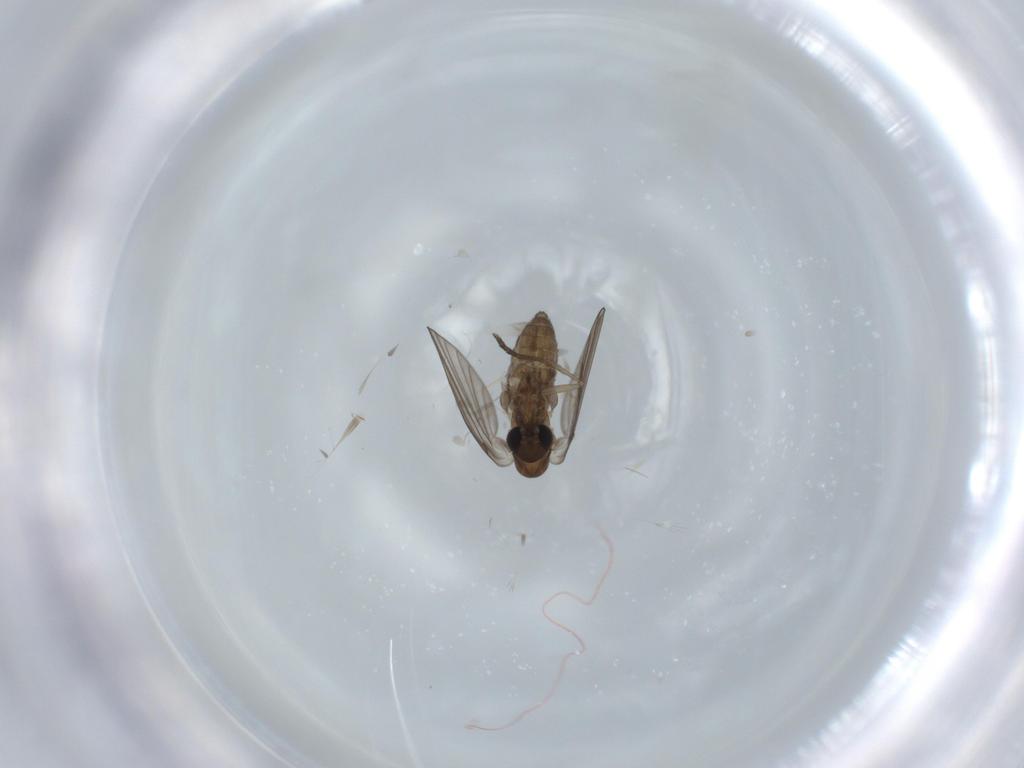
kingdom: Animalia
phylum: Arthropoda
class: Insecta
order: Diptera
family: Psychodidae
